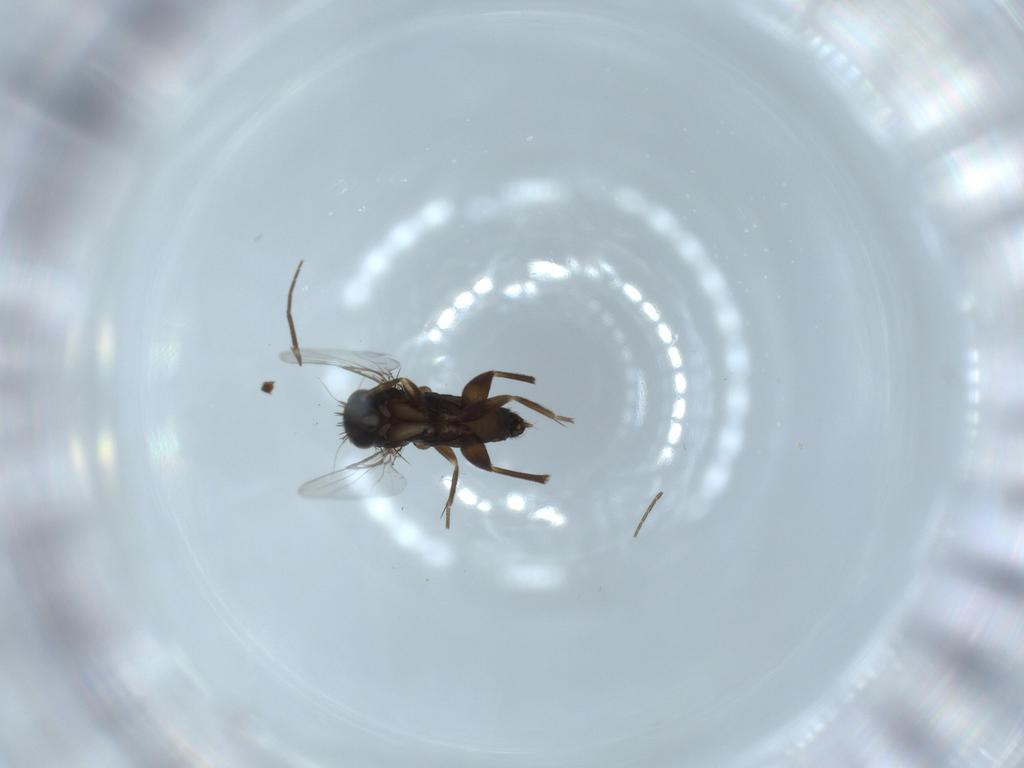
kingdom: Animalia
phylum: Arthropoda
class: Insecta
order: Diptera
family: Phoridae
